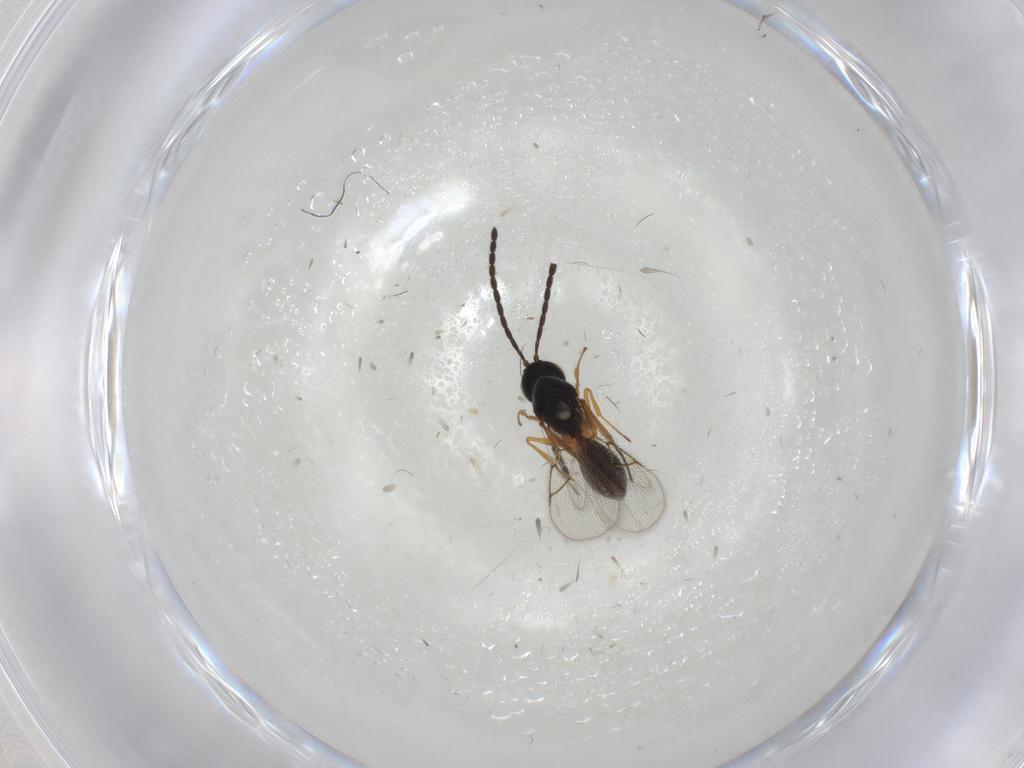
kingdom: Animalia
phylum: Arthropoda
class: Insecta
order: Hymenoptera
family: Figitidae
